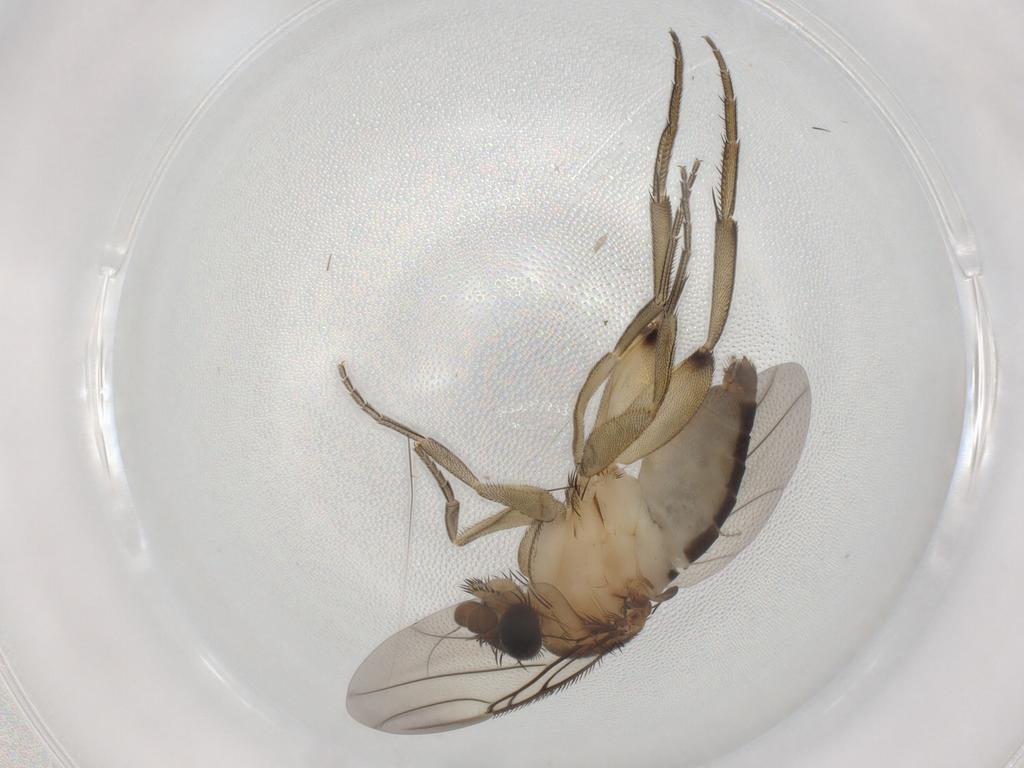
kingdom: Animalia
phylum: Arthropoda
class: Insecta
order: Diptera
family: Phoridae
